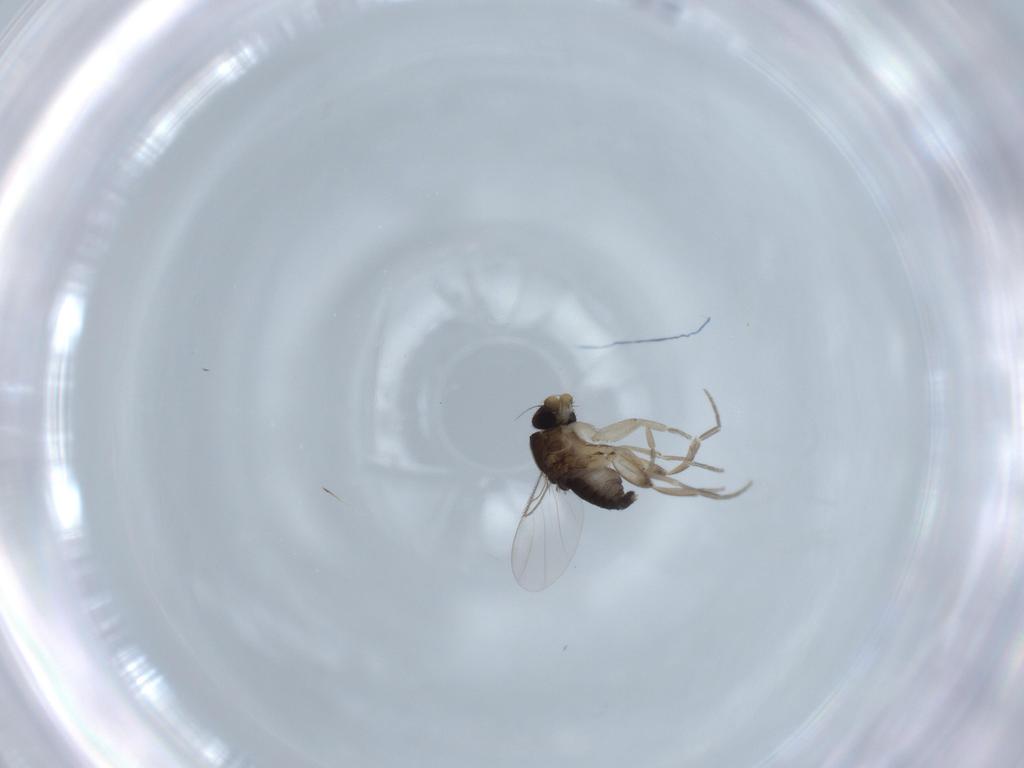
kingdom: Animalia
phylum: Arthropoda
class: Insecta
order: Diptera
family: Phoridae
